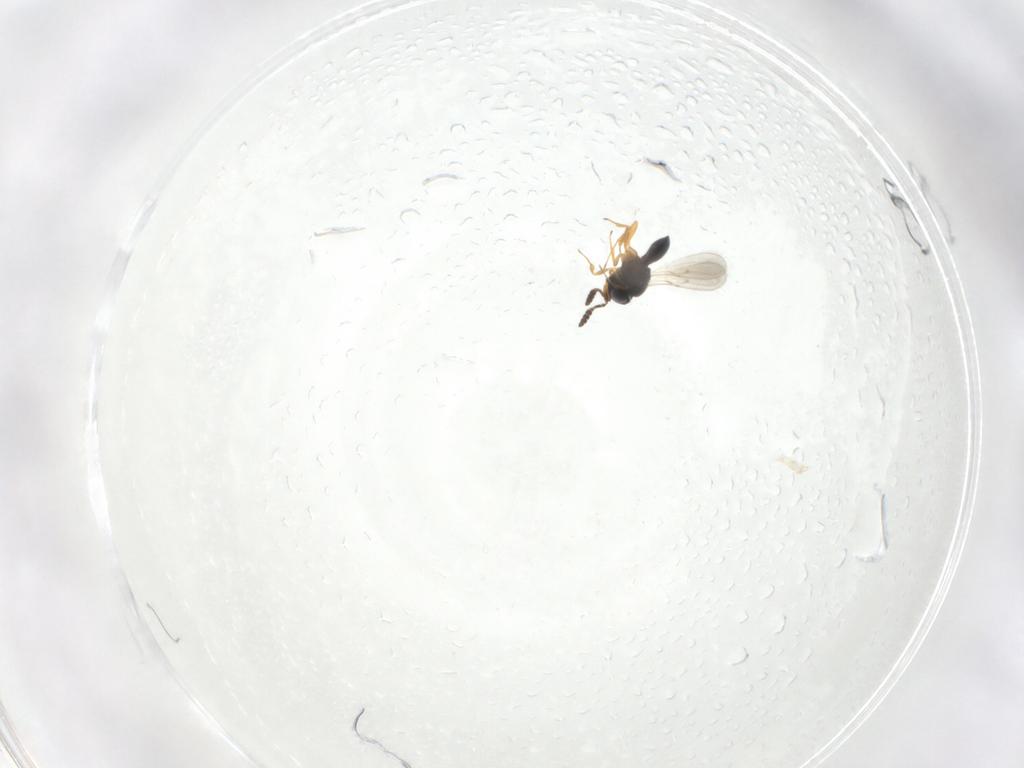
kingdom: Animalia
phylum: Arthropoda
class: Insecta
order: Hymenoptera
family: Scelionidae
